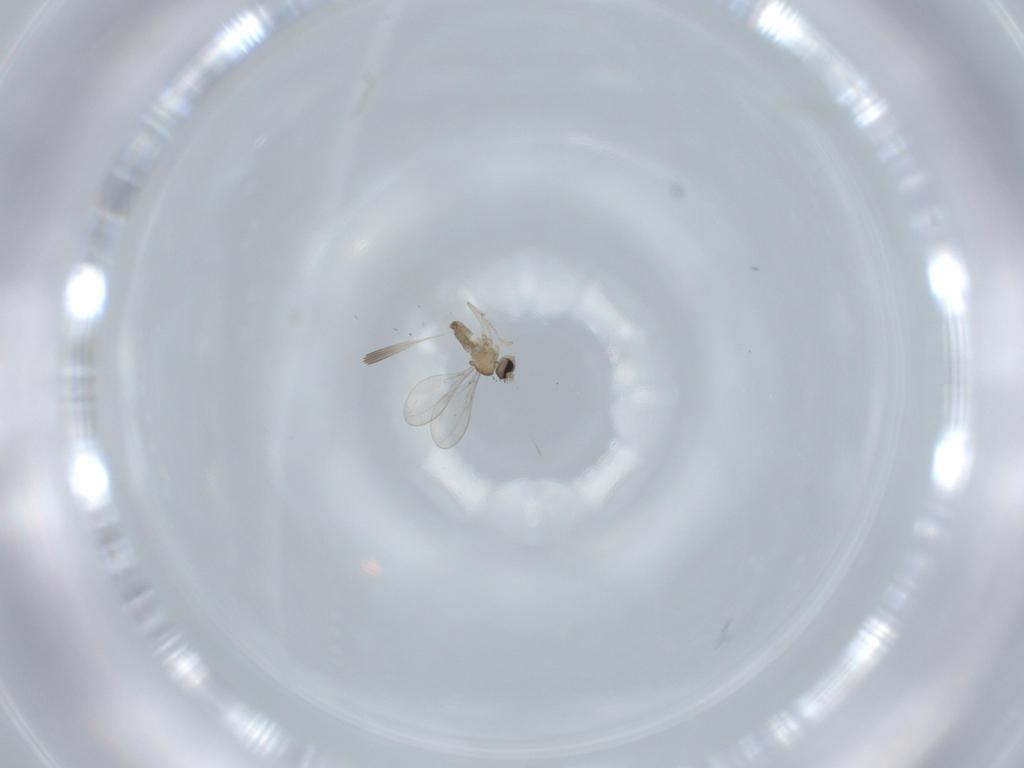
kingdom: Animalia
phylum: Arthropoda
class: Insecta
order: Diptera
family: Cecidomyiidae
